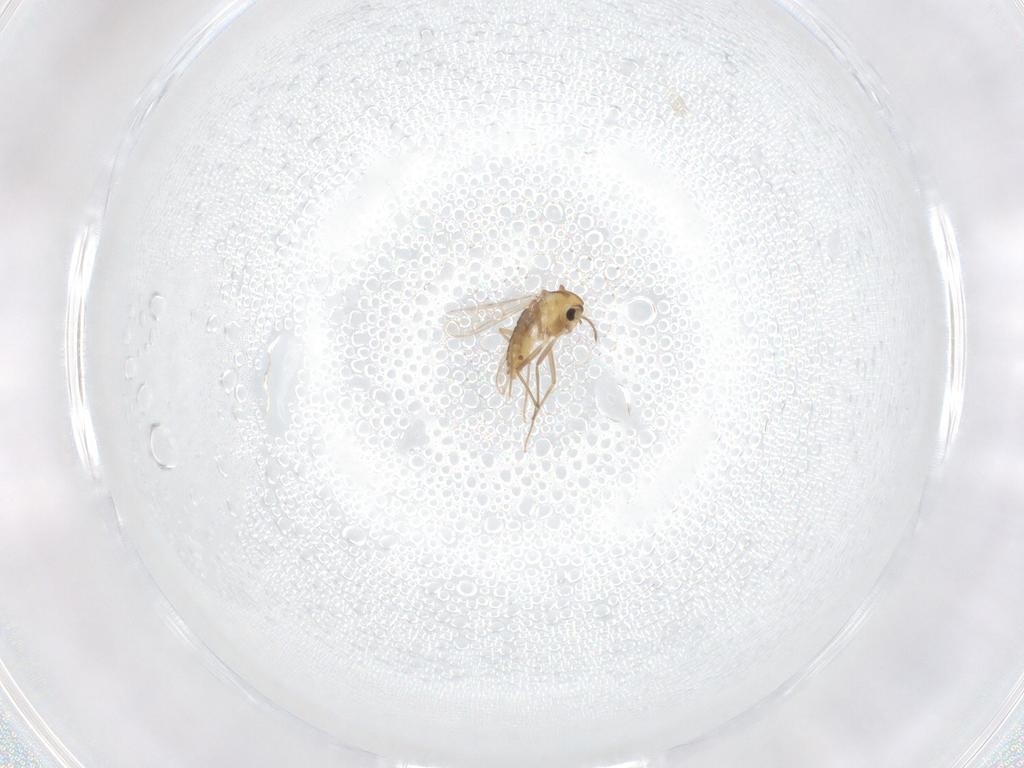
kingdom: Animalia
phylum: Arthropoda
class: Insecta
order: Diptera
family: Chironomidae
